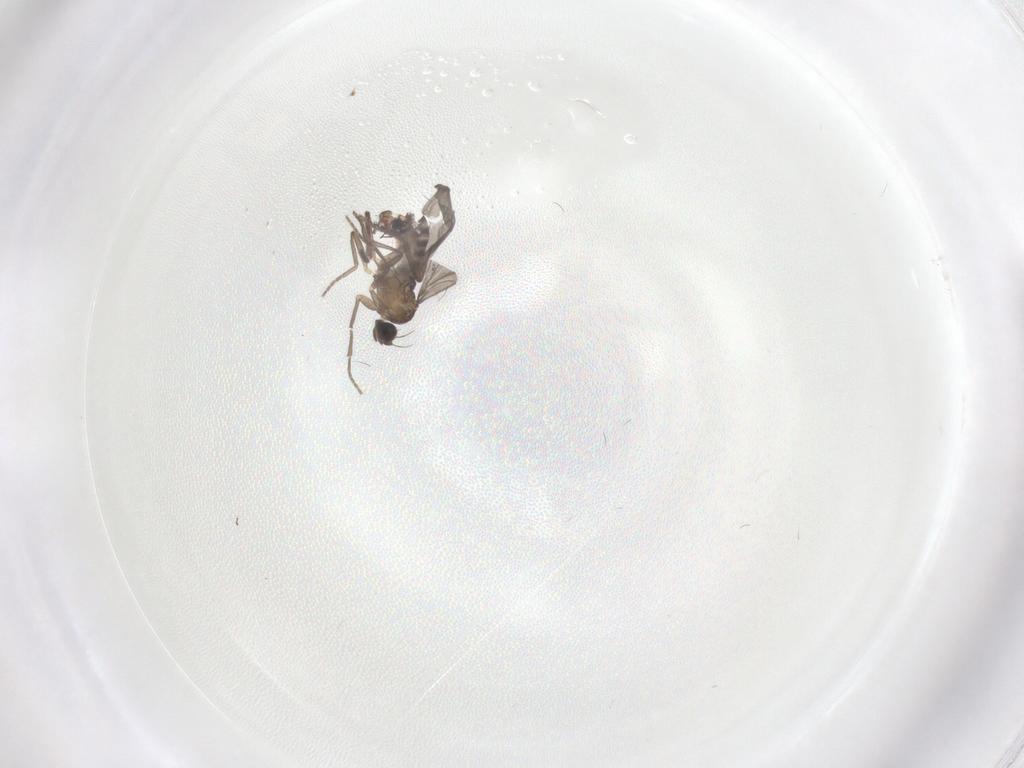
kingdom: Animalia
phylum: Arthropoda
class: Insecta
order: Diptera
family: Phoridae
